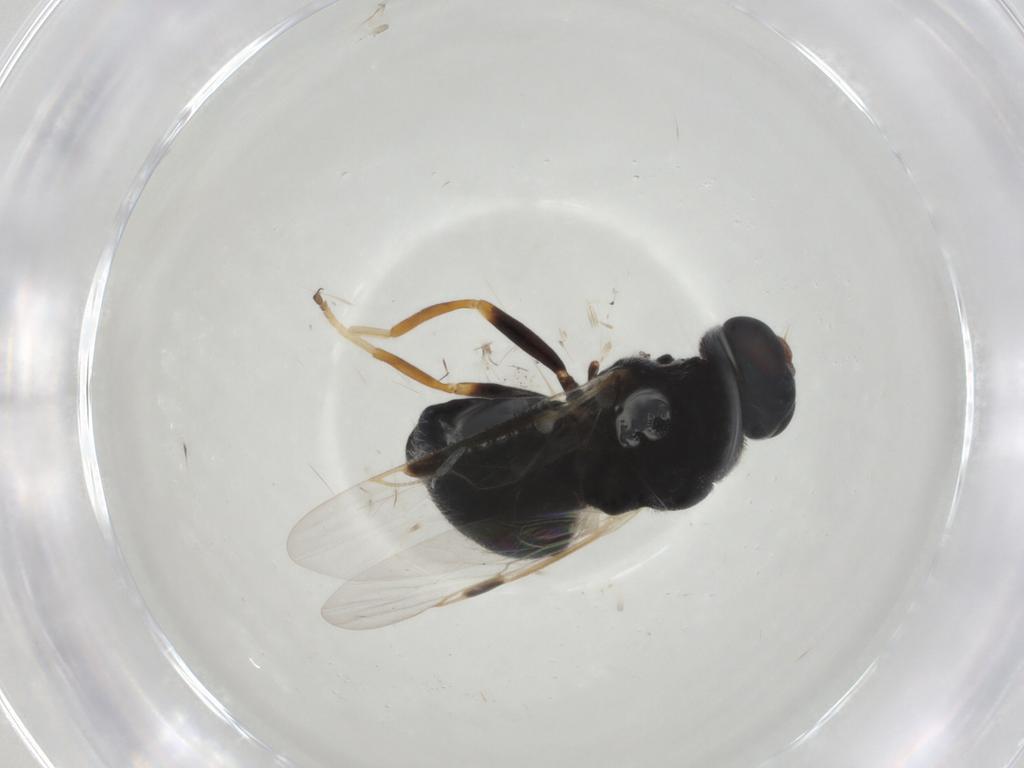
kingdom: Animalia
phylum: Arthropoda
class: Insecta
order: Diptera
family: Stratiomyidae
